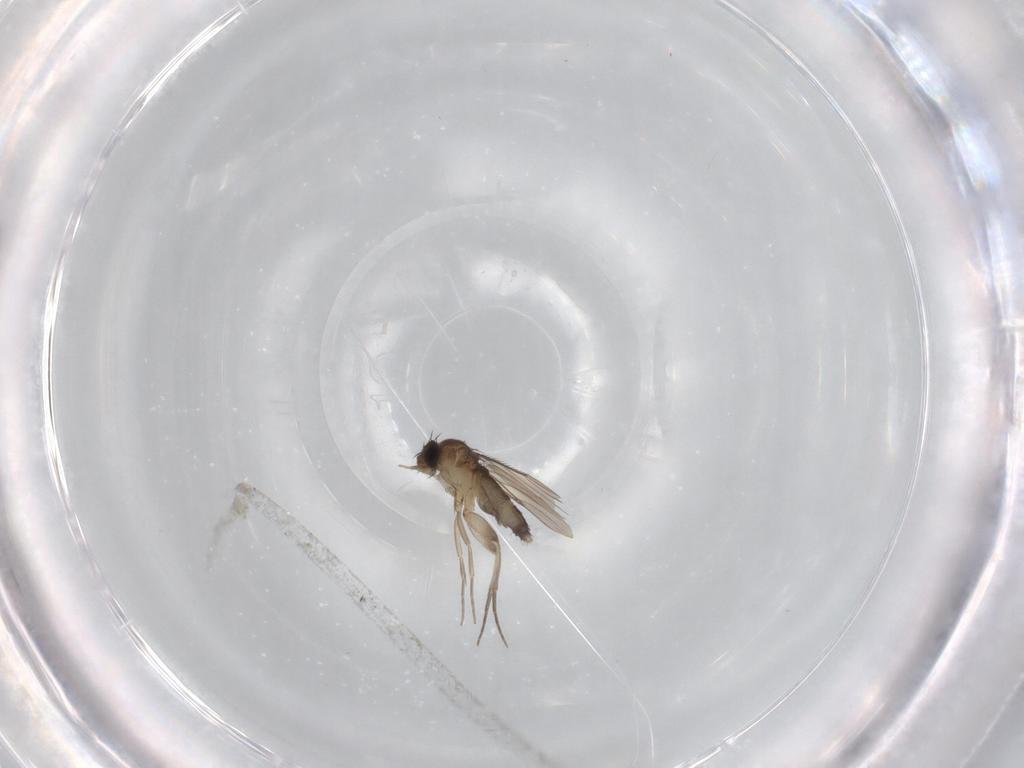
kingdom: Animalia
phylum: Arthropoda
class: Insecta
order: Diptera
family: Phoridae
